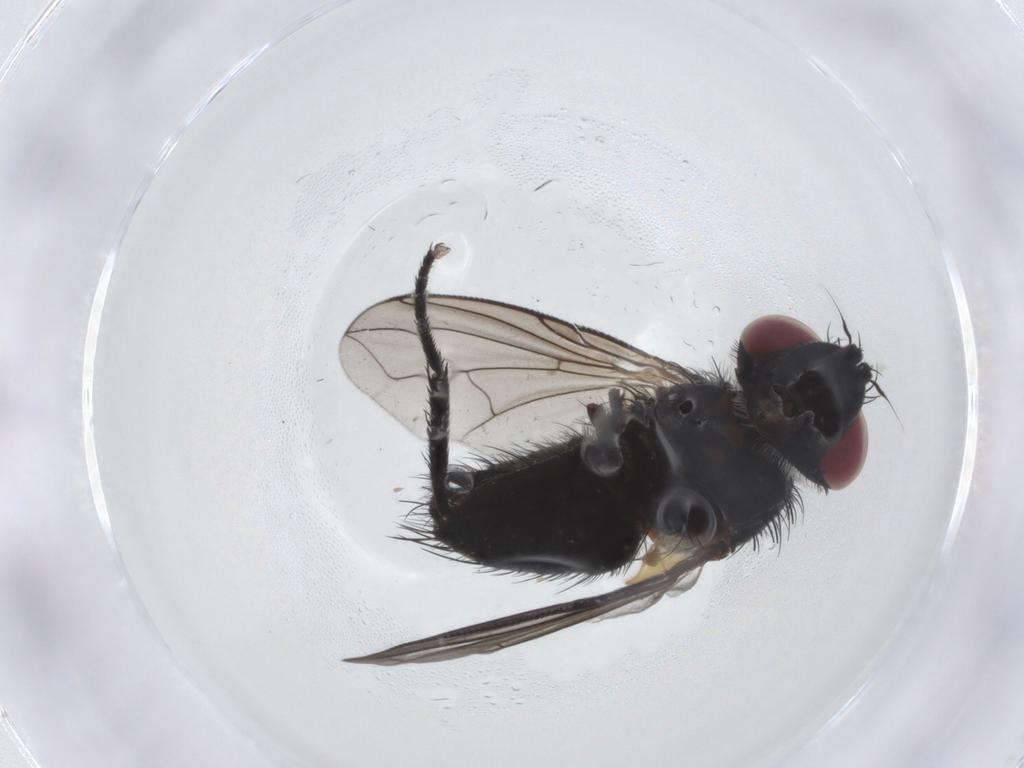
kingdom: Animalia
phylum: Arthropoda
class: Insecta
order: Diptera
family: Tachinidae
